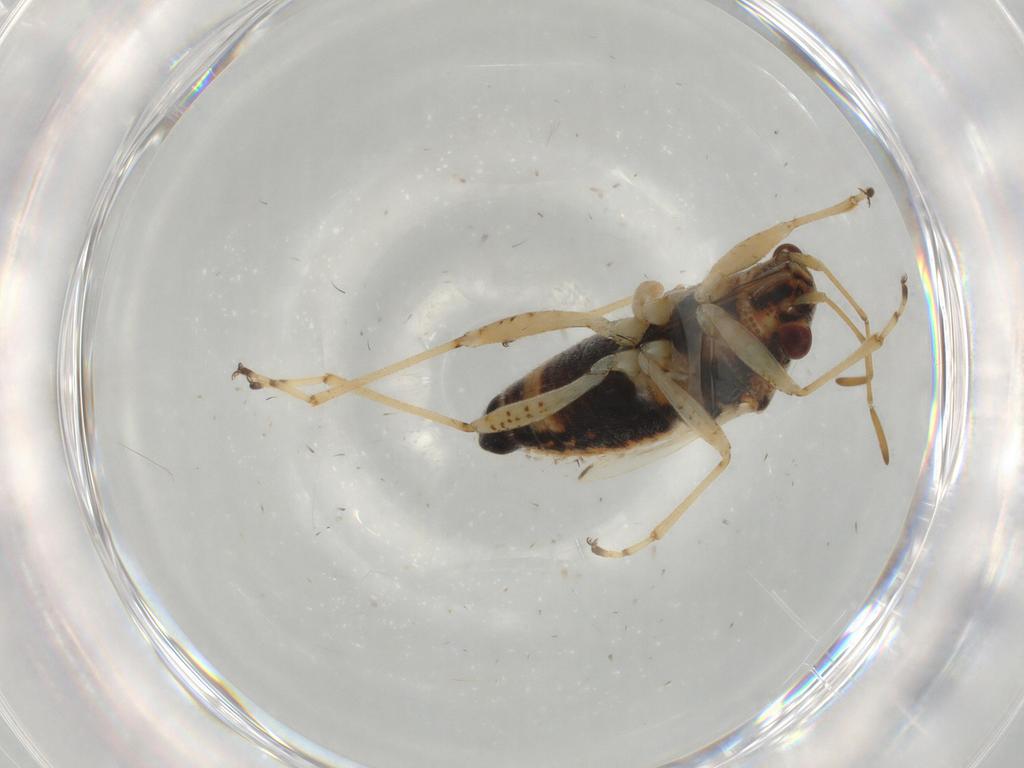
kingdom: Animalia
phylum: Arthropoda
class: Insecta
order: Hemiptera
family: Lygaeidae
